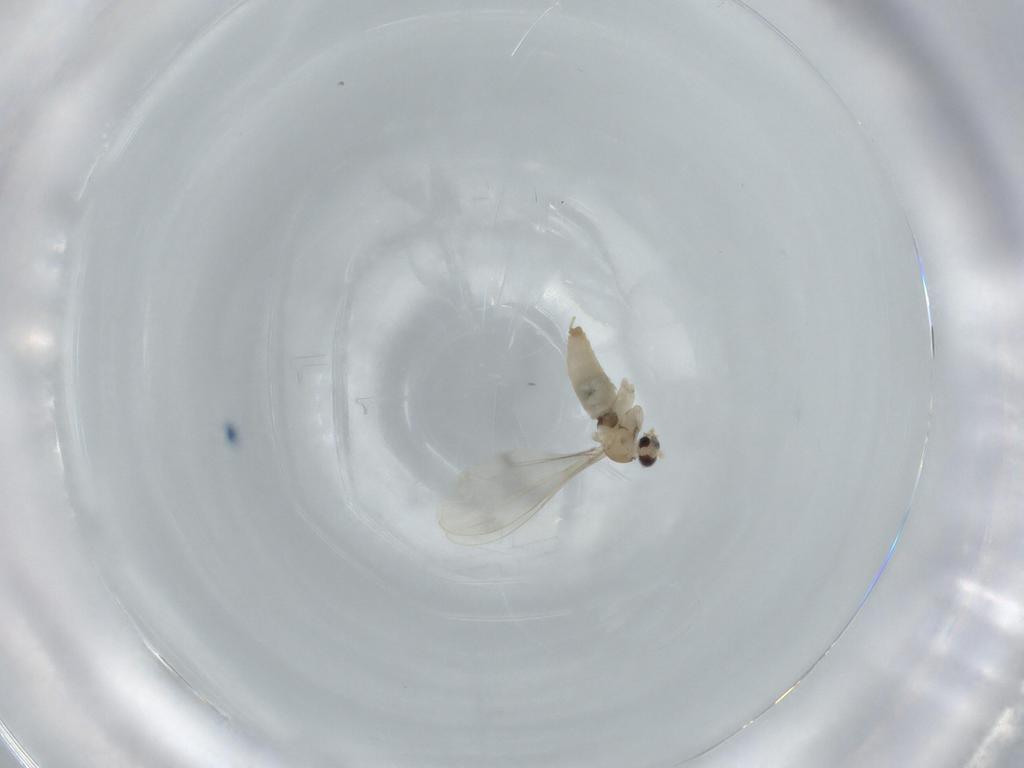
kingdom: Animalia
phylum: Arthropoda
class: Insecta
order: Diptera
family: Cecidomyiidae
